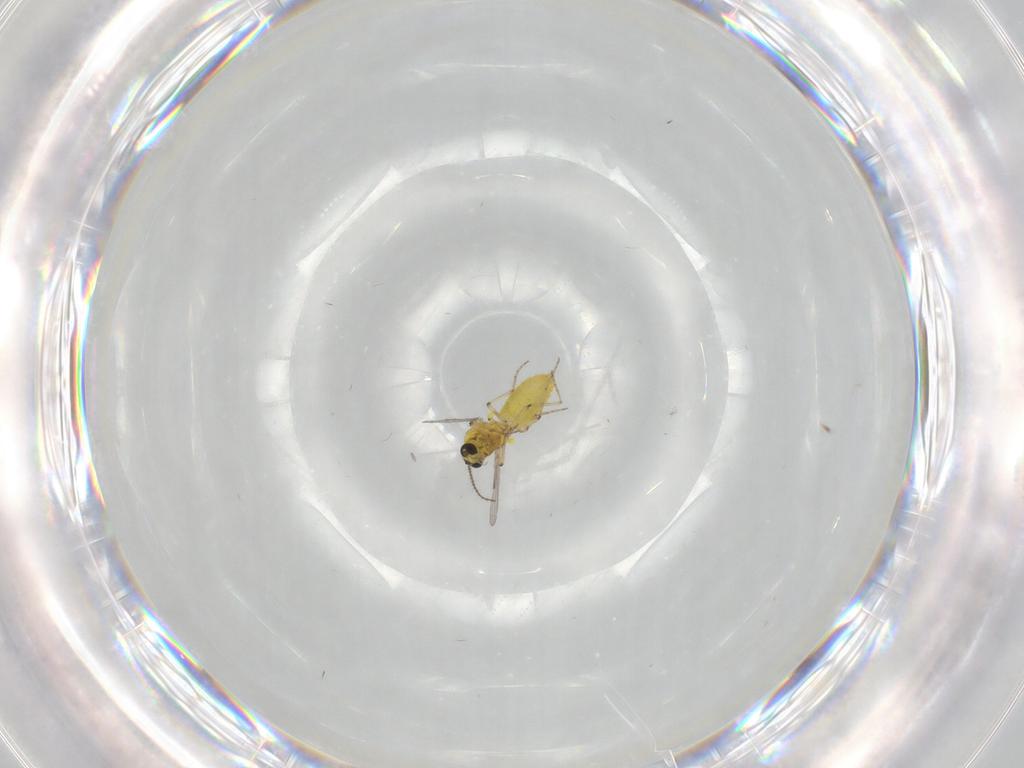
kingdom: Animalia
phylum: Arthropoda
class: Insecta
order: Diptera
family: Ceratopogonidae
